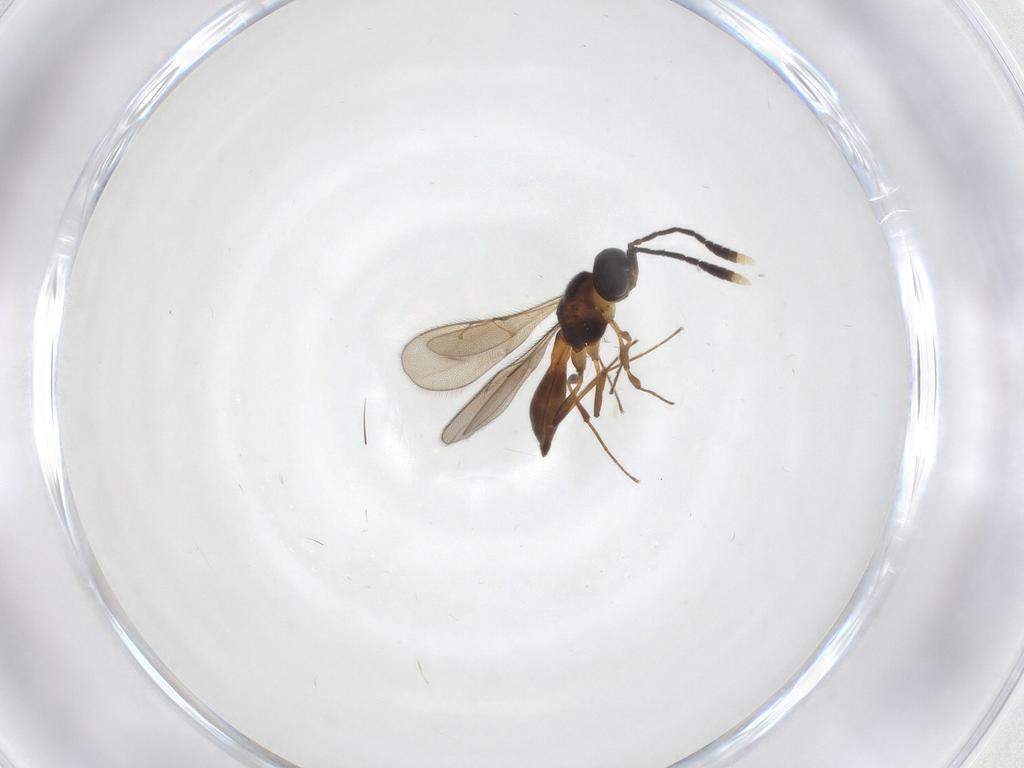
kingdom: Animalia
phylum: Arthropoda
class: Insecta
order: Hymenoptera
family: Scelionidae
